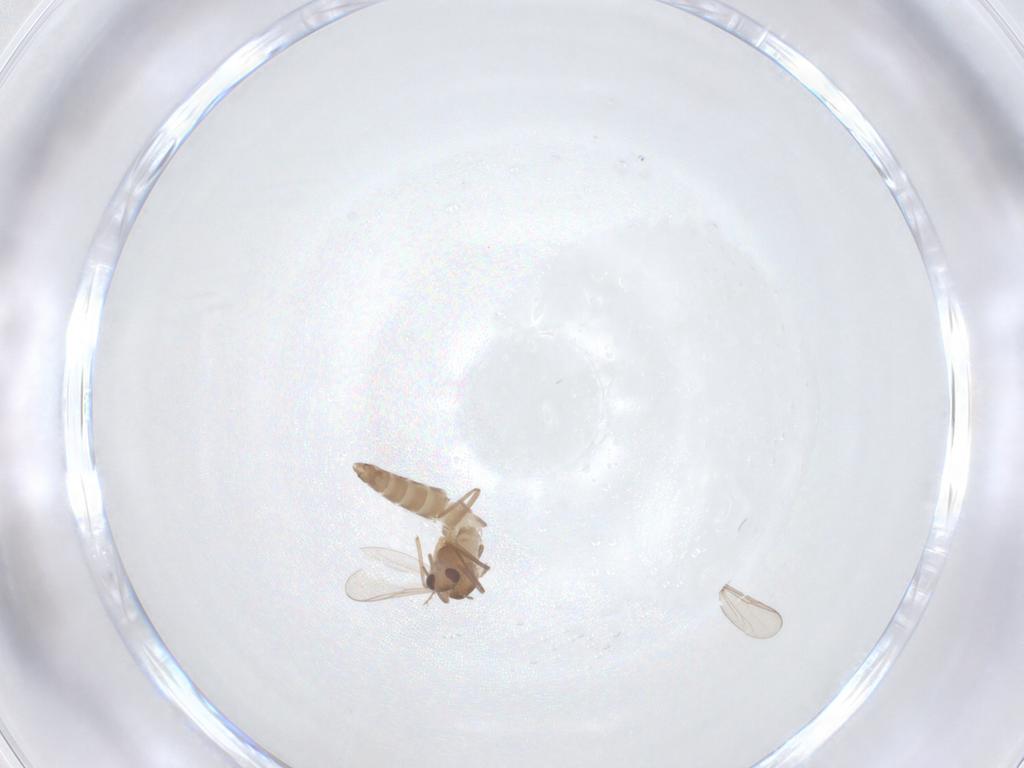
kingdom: Animalia
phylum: Arthropoda
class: Insecta
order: Diptera
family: Chironomidae
